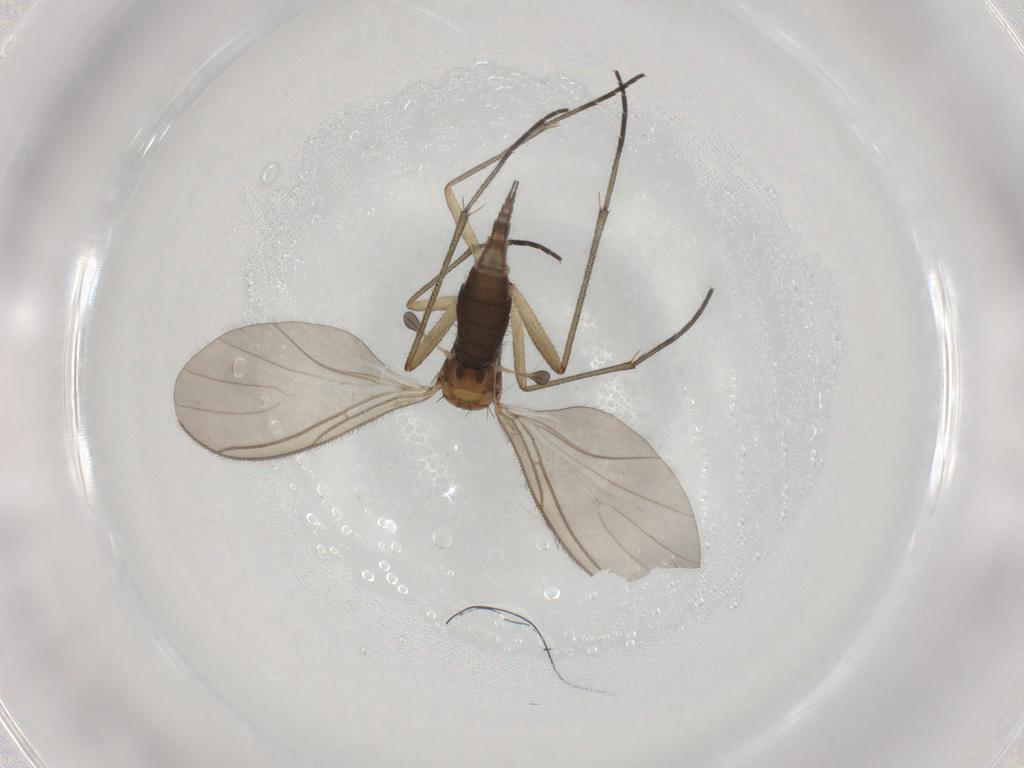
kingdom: Animalia
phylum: Arthropoda
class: Insecta
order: Diptera
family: Sciaridae
